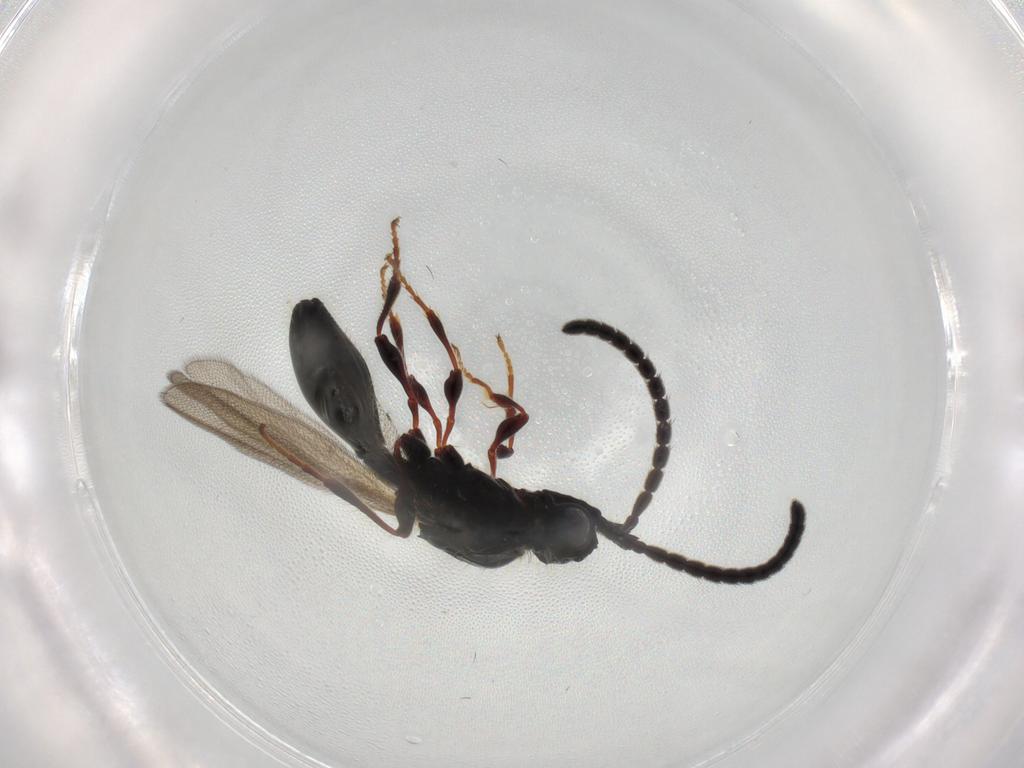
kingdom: Animalia
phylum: Arthropoda
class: Insecta
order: Hymenoptera
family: Diapriidae
